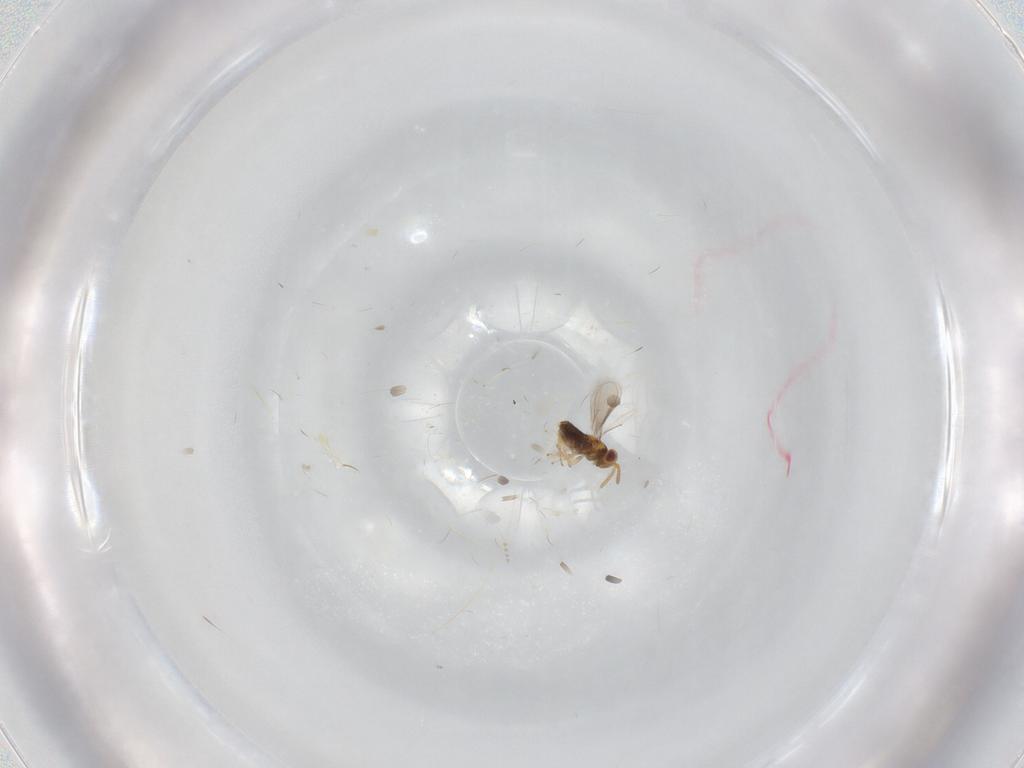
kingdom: Animalia
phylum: Arthropoda
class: Insecta
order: Hymenoptera
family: Aphelinidae
